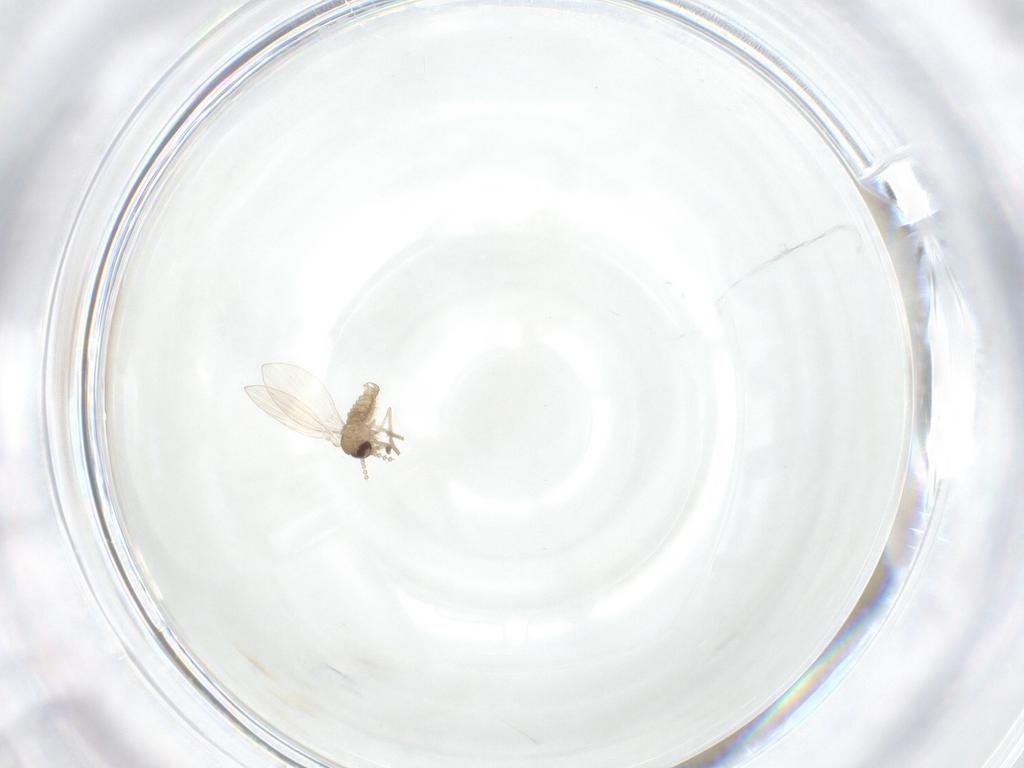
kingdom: Animalia
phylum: Arthropoda
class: Insecta
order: Diptera
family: Psychodidae
